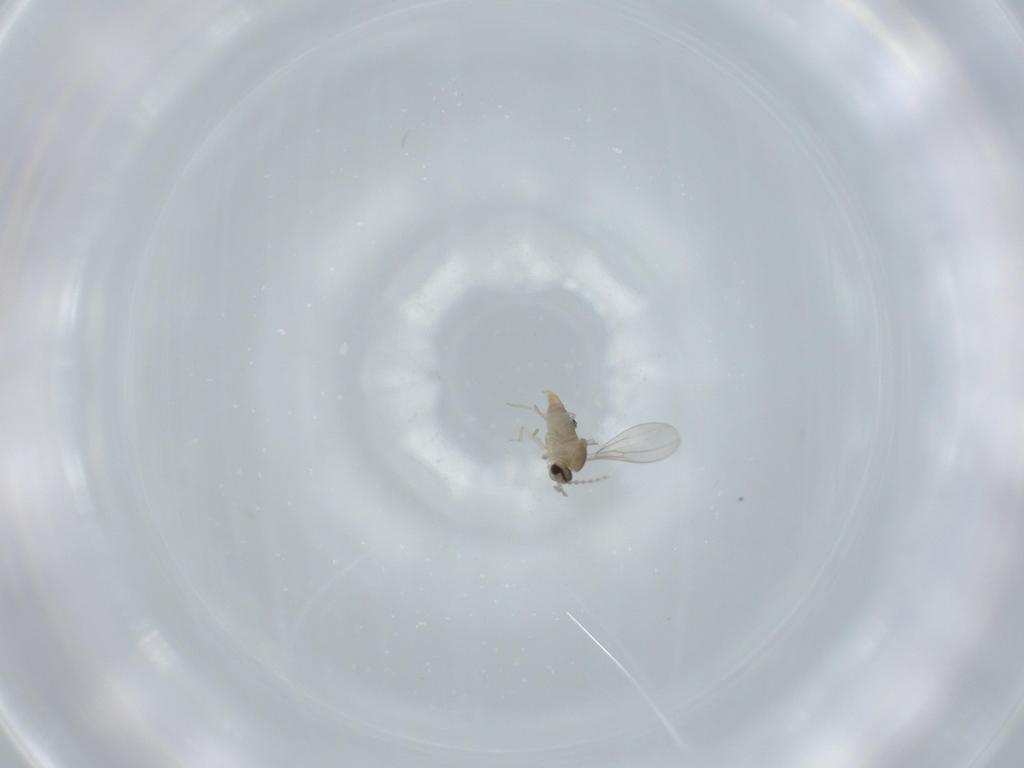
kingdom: Animalia
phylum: Arthropoda
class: Insecta
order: Diptera
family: Cecidomyiidae
